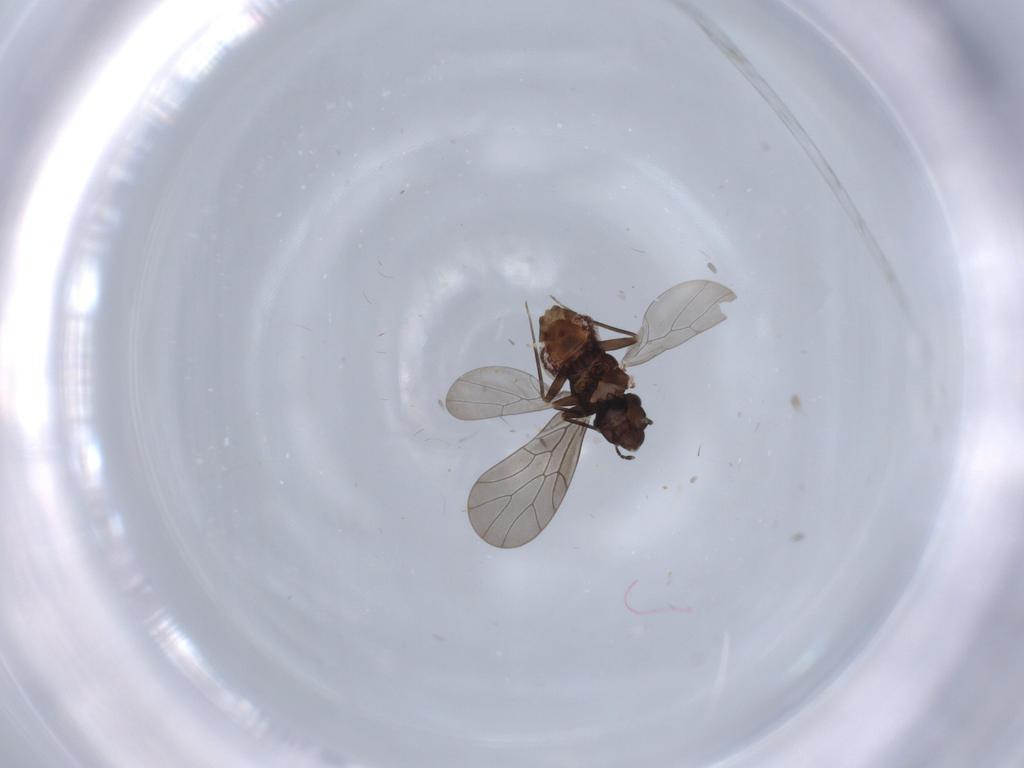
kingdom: Animalia
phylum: Arthropoda
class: Insecta
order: Psocodea
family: Lepidopsocidae
